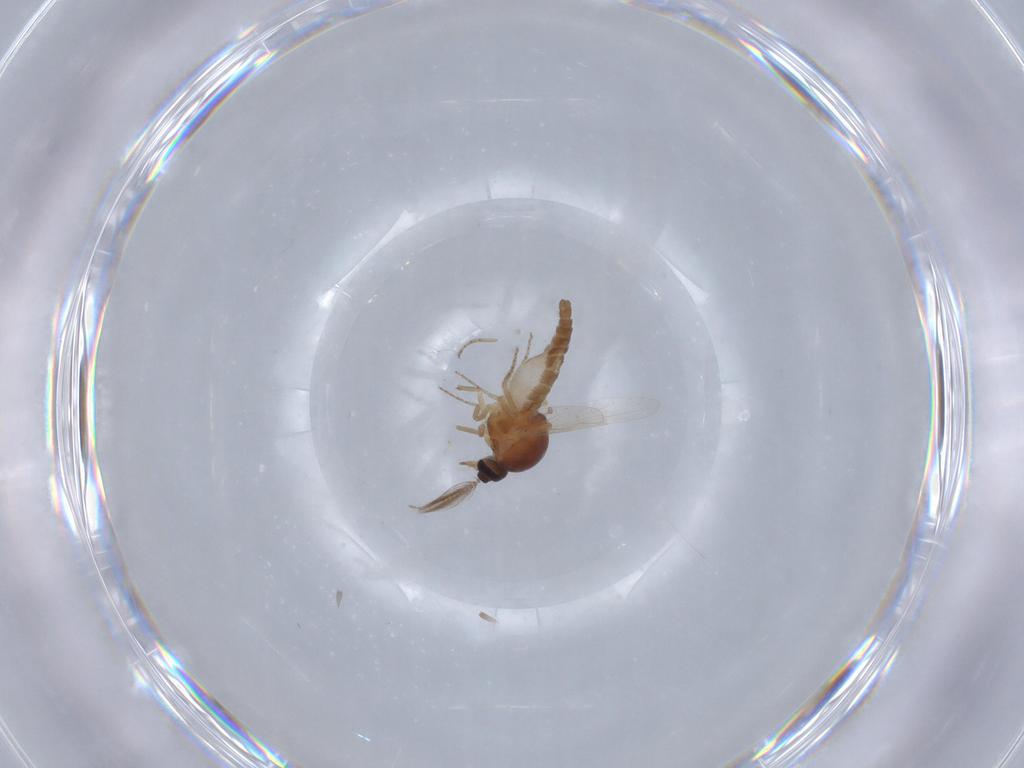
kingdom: Animalia
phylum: Arthropoda
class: Insecta
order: Diptera
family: Ceratopogonidae
